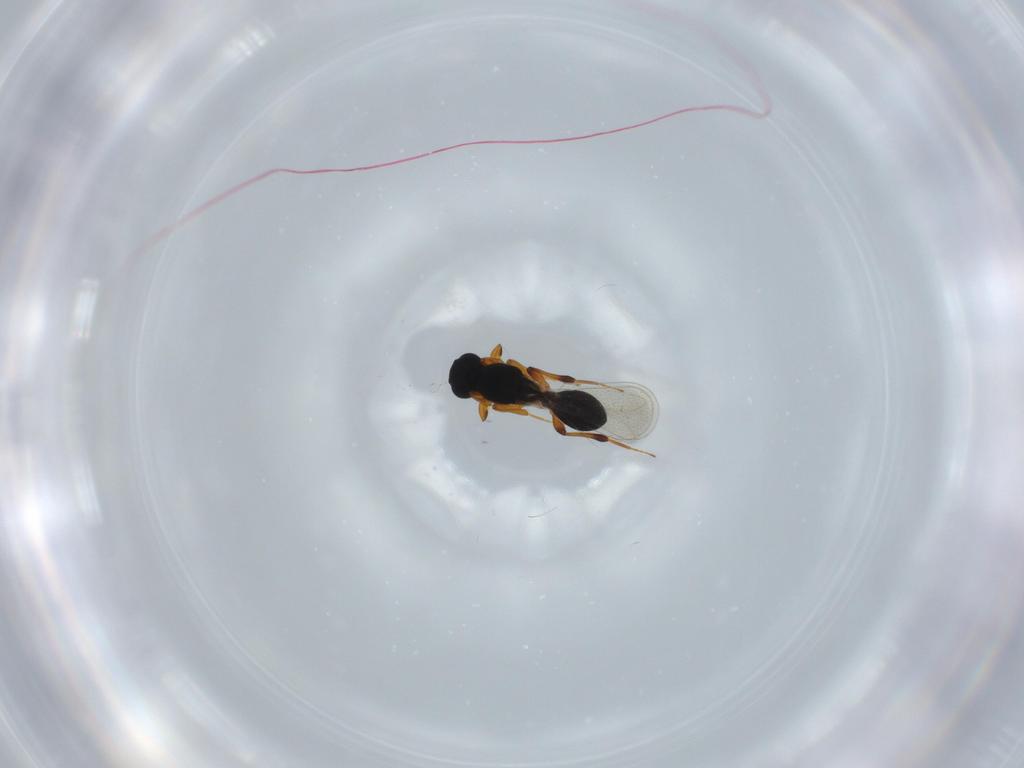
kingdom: Animalia
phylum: Arthropoda
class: Insecta
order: Hymenoptera
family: Platygastridae
